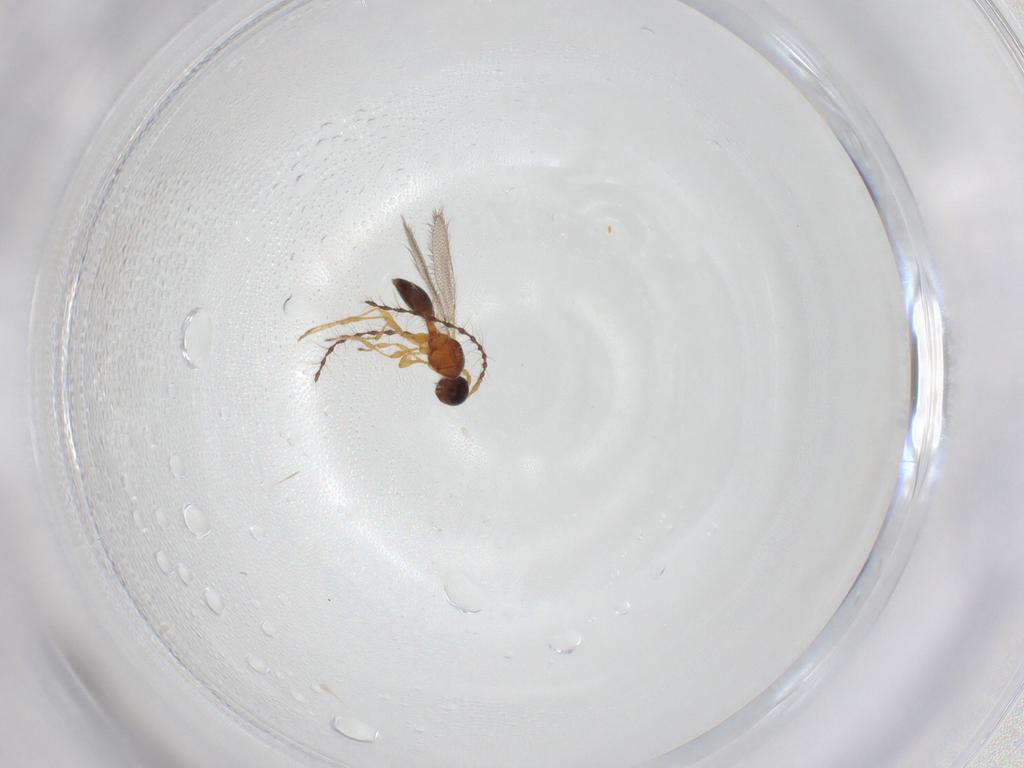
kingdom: Animalia
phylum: Arthropoda
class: Insecta
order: Hymenoptera
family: Diapriidae
